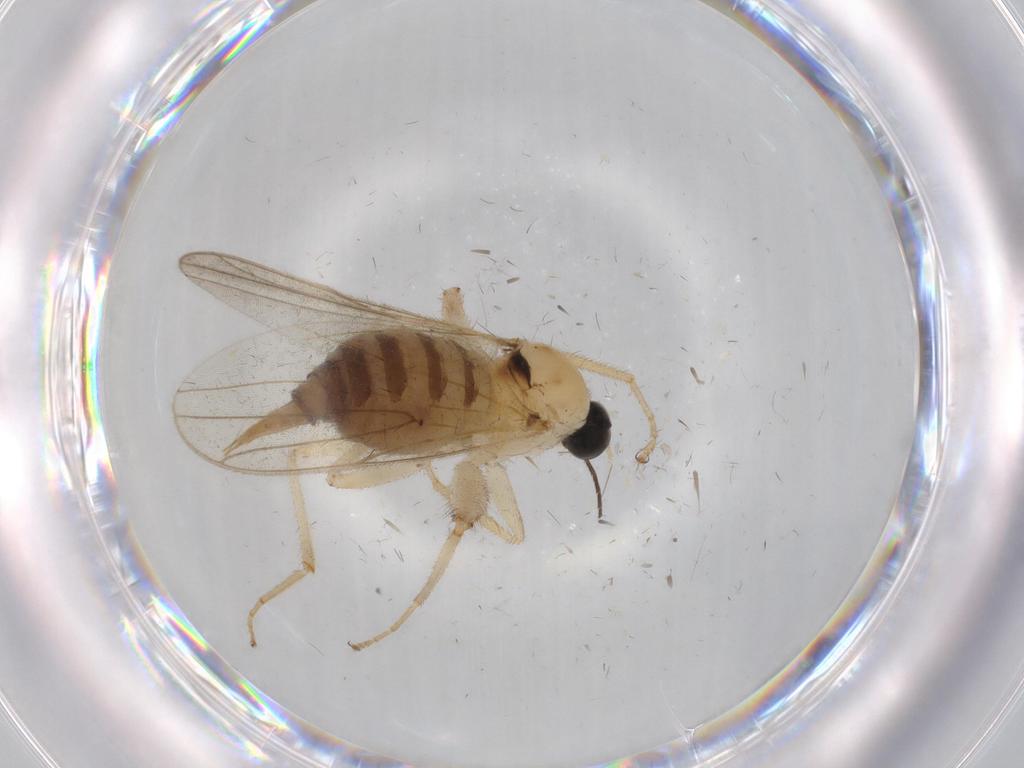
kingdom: Animalia
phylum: Arthropoda
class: Insecta
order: Diptera
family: Hybotidae
